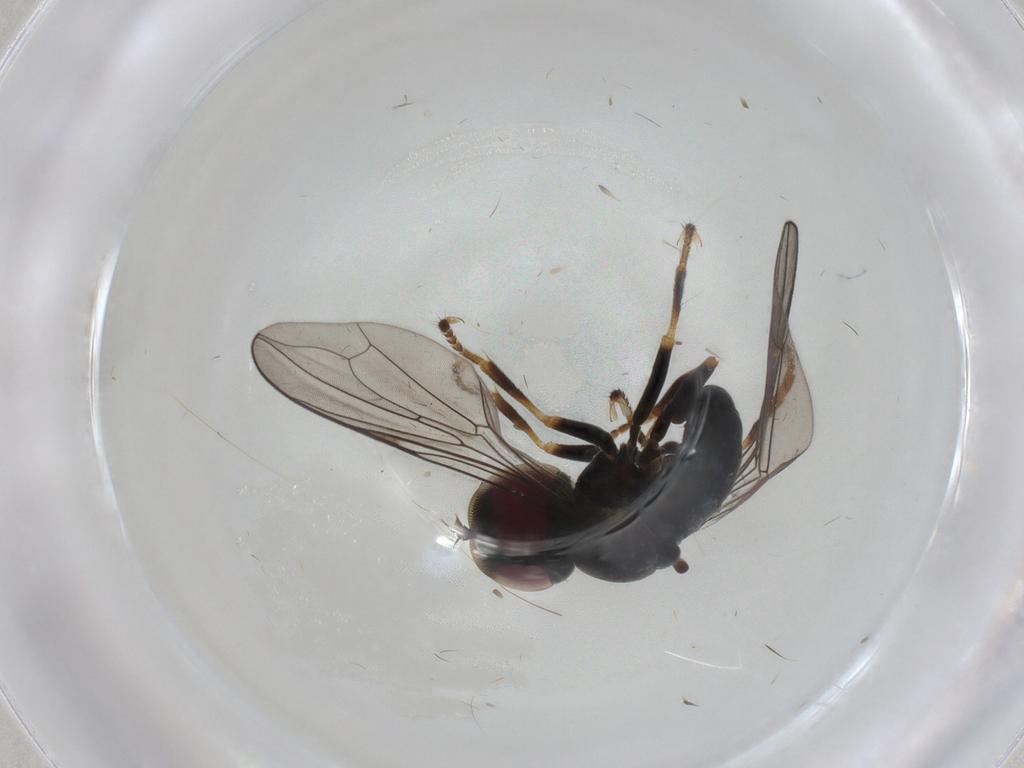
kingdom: Animalia
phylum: Arthropoda
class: Insecta
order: Diptera
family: Pipunculidae
